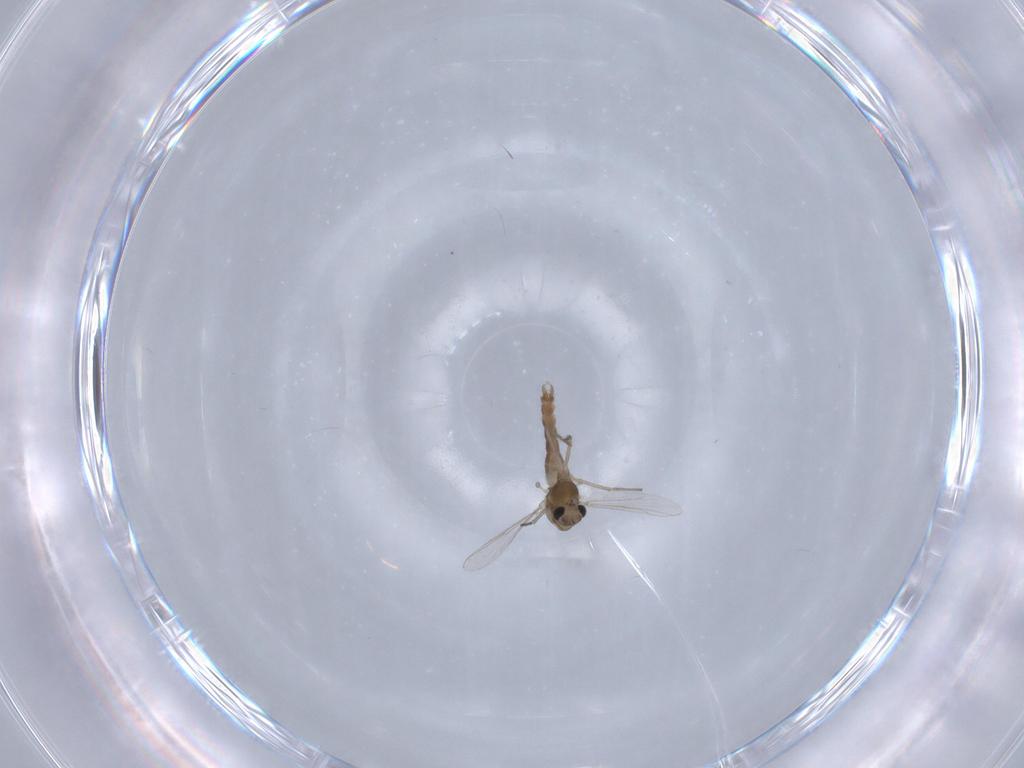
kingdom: Animalia
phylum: Arthropoda
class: Insecta
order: Diptera
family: Chironomidae
